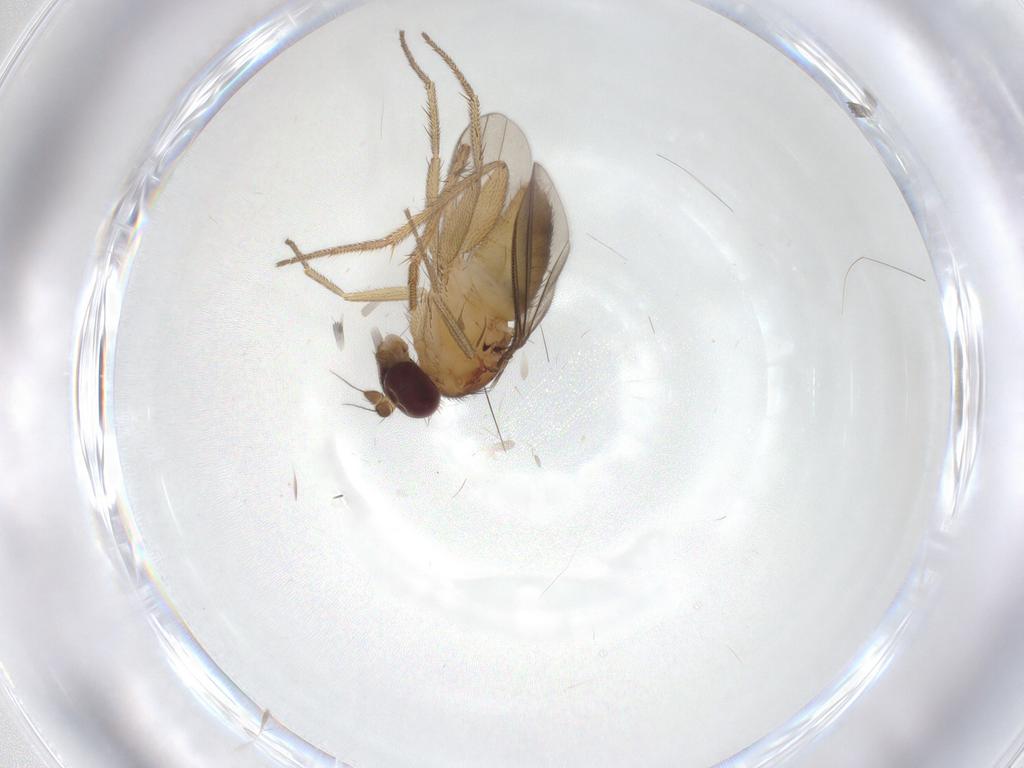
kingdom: Animalia
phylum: Arthropoda
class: Insecta
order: Diptera
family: Dolichopodidae
